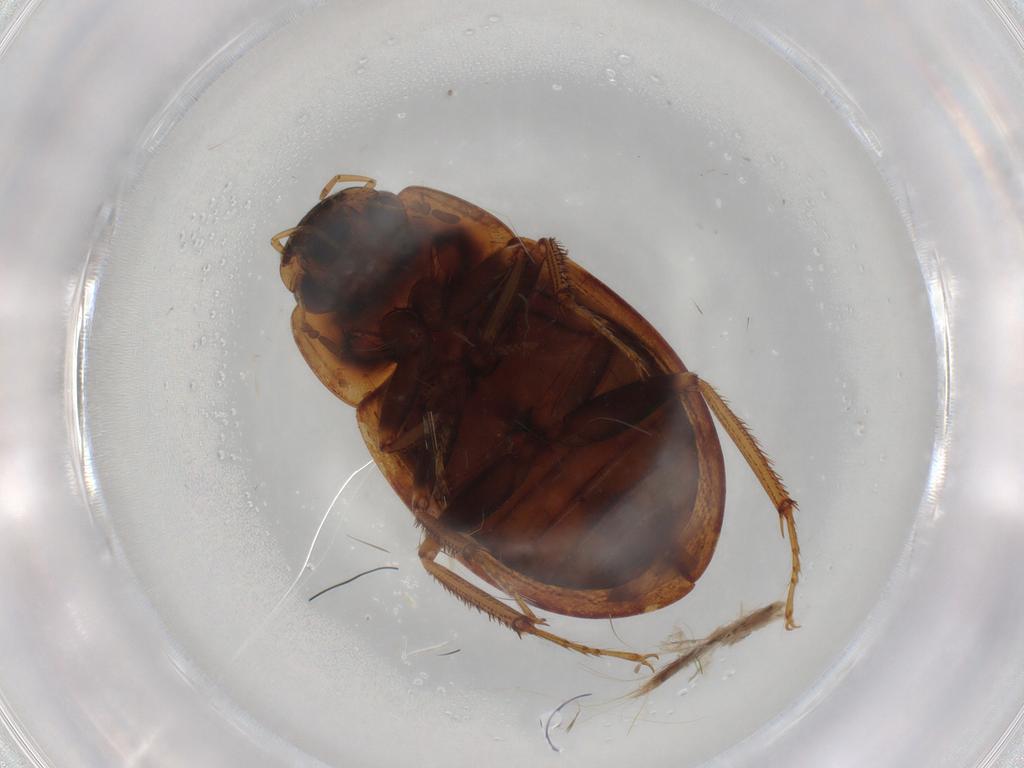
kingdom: Animalia
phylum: Arthropoda
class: Insecta
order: Coleoptera
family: Hydrophilidae
